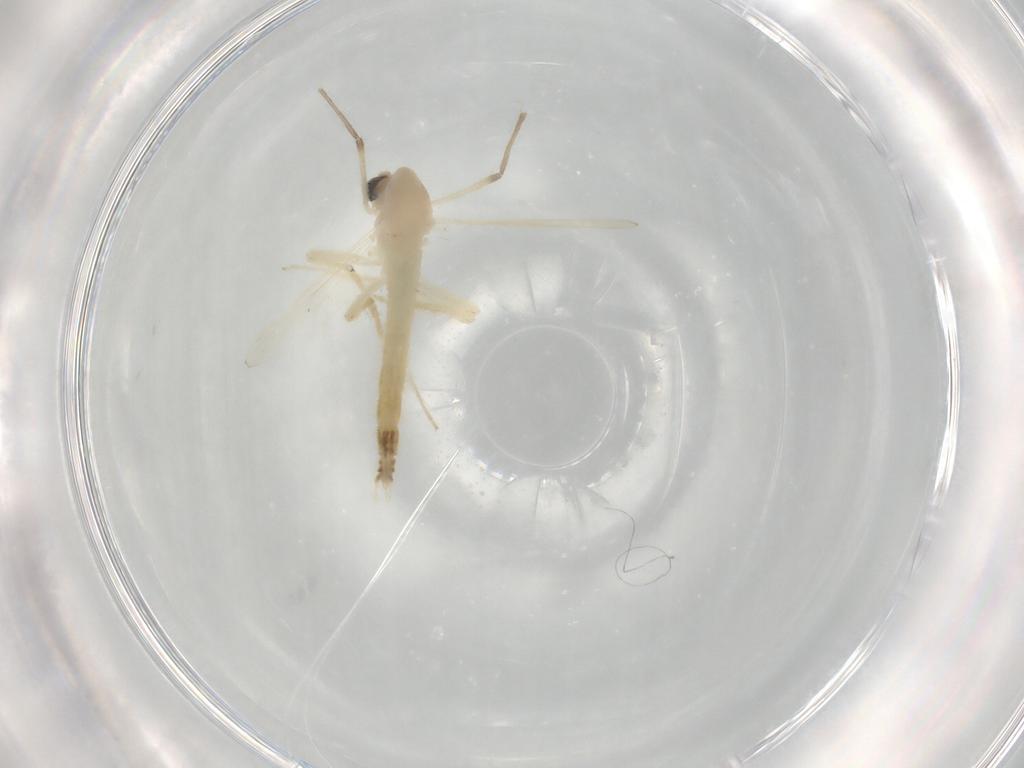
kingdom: Animalia
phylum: Arthropoda
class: Insecta
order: Diptera
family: Chironomidae
